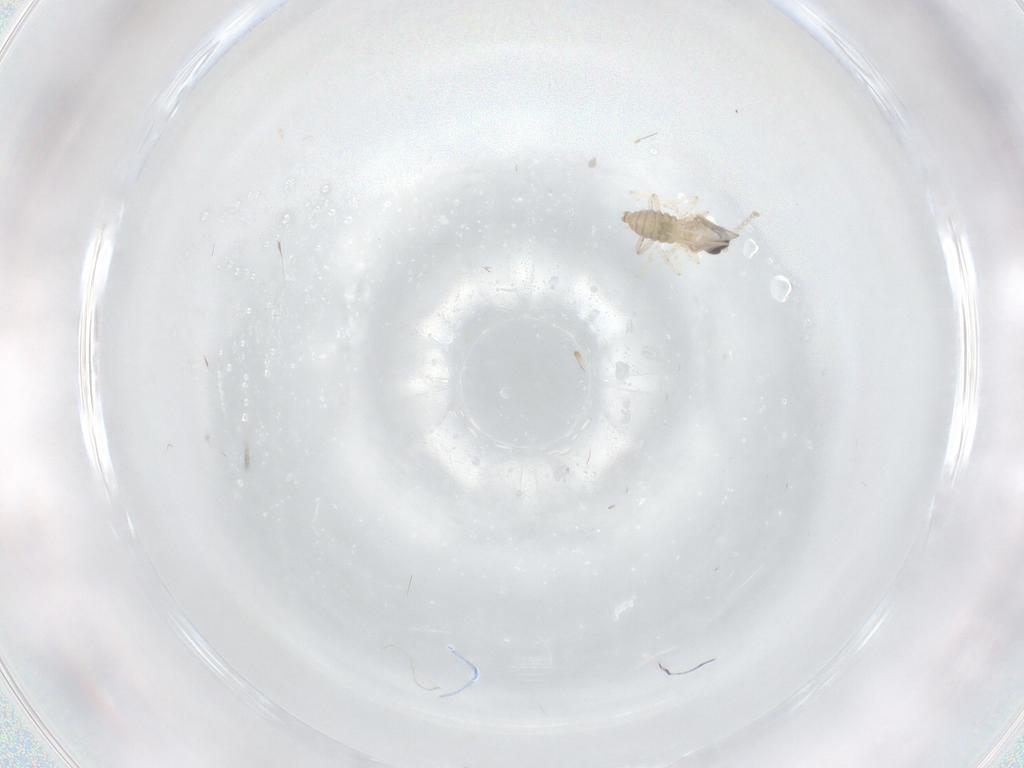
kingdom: Animalia
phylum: Arthropoda
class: Insecta
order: Diptera
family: Cecidomyiidae
